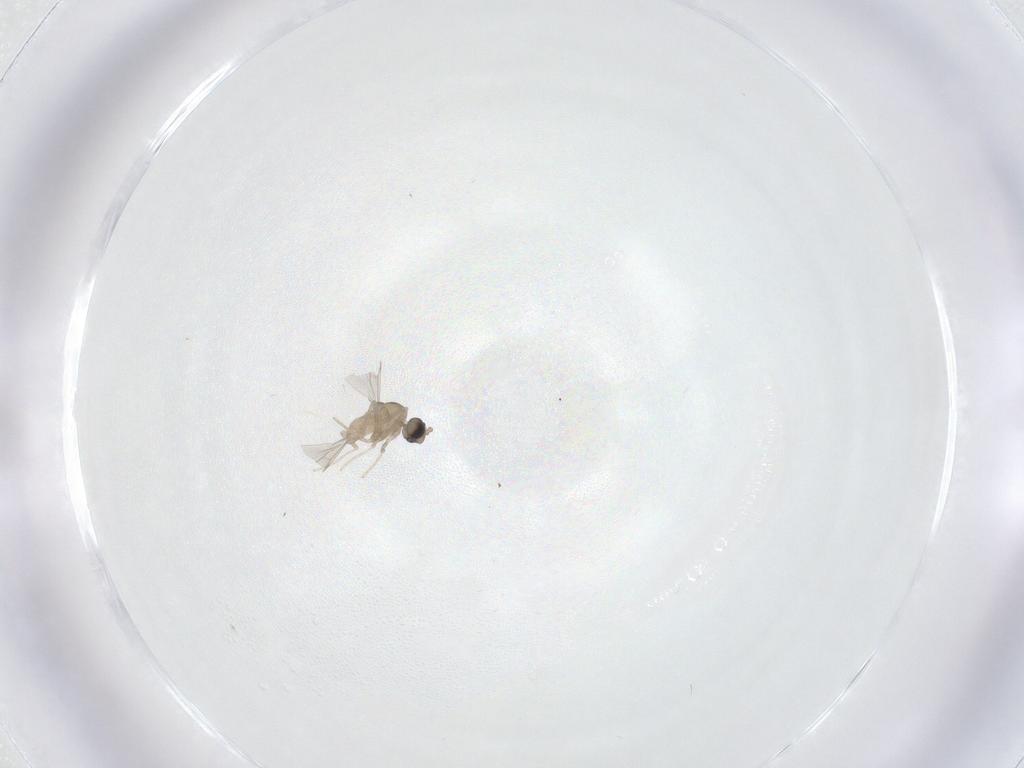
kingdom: Animalia
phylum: Arthropoda
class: Insecta
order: Diptera
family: Cecidomyiidae
